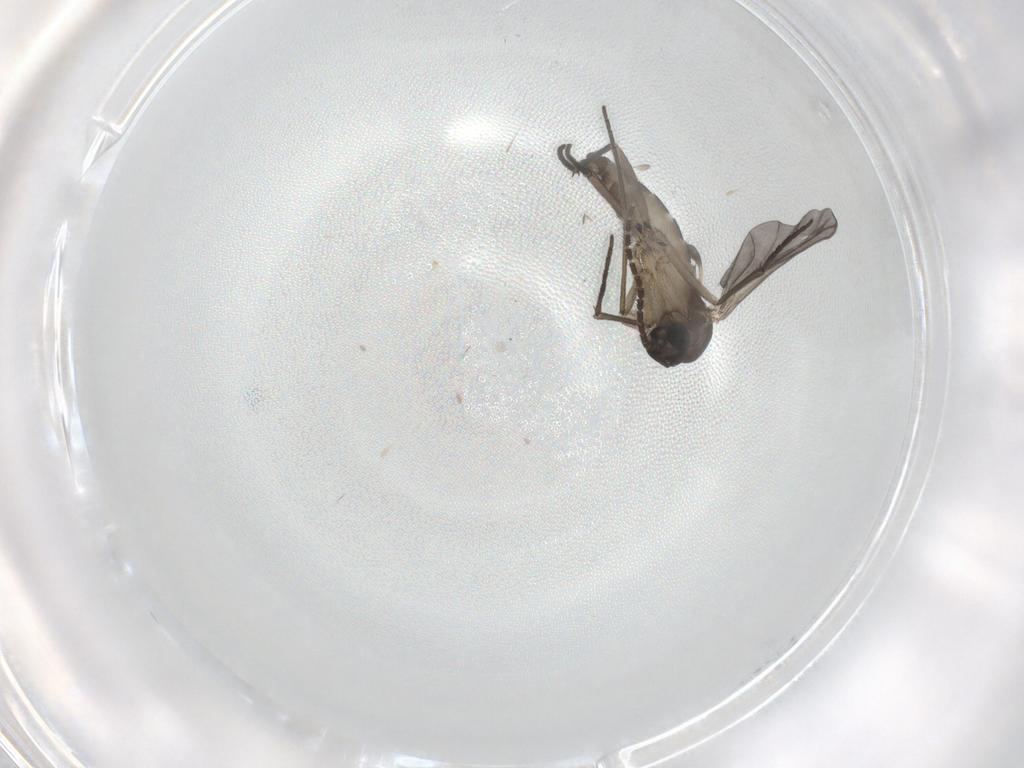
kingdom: Animalia
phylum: Arthropoda
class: Insecta
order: Diptera
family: Sciaridae
